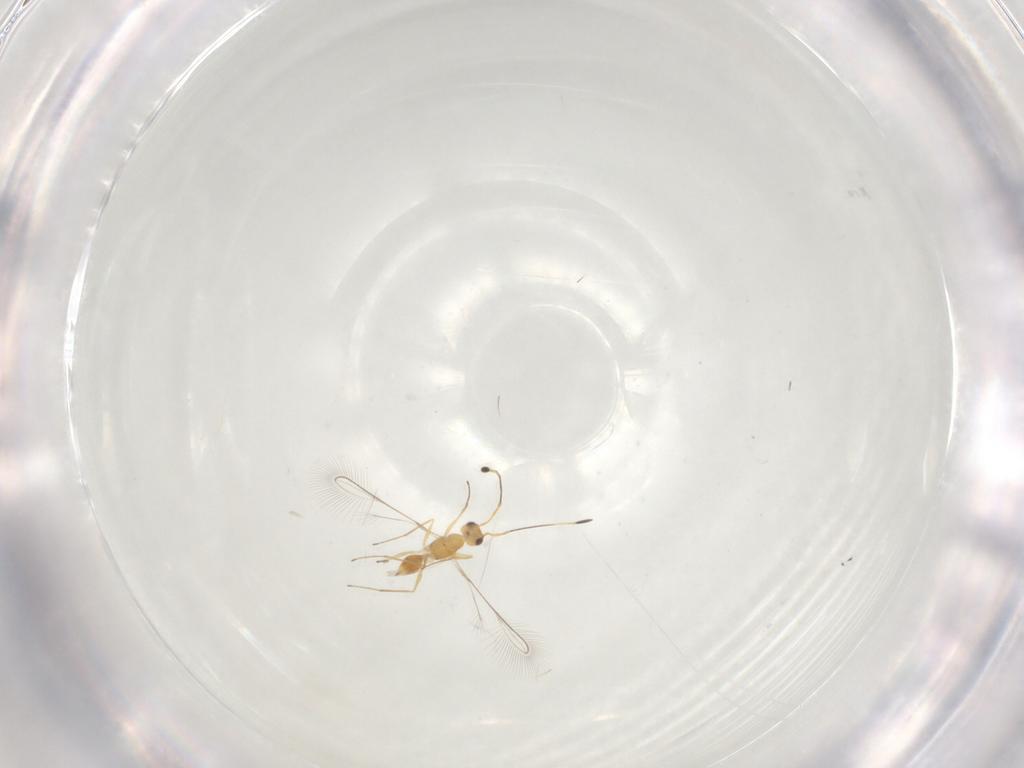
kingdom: Animalia
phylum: Arthropoda
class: Insecta
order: Hymenoptera
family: Mymaridae
